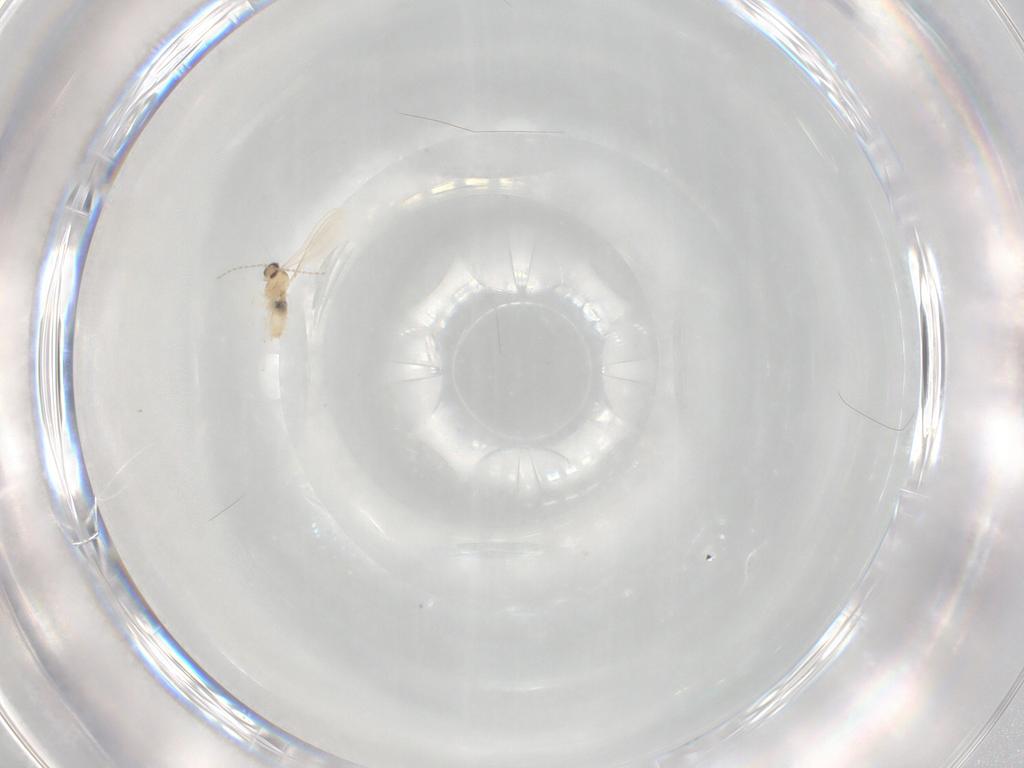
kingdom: Animalia
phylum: Arthropoda
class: Insecta
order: Diptera
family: Cecidomyiidae
